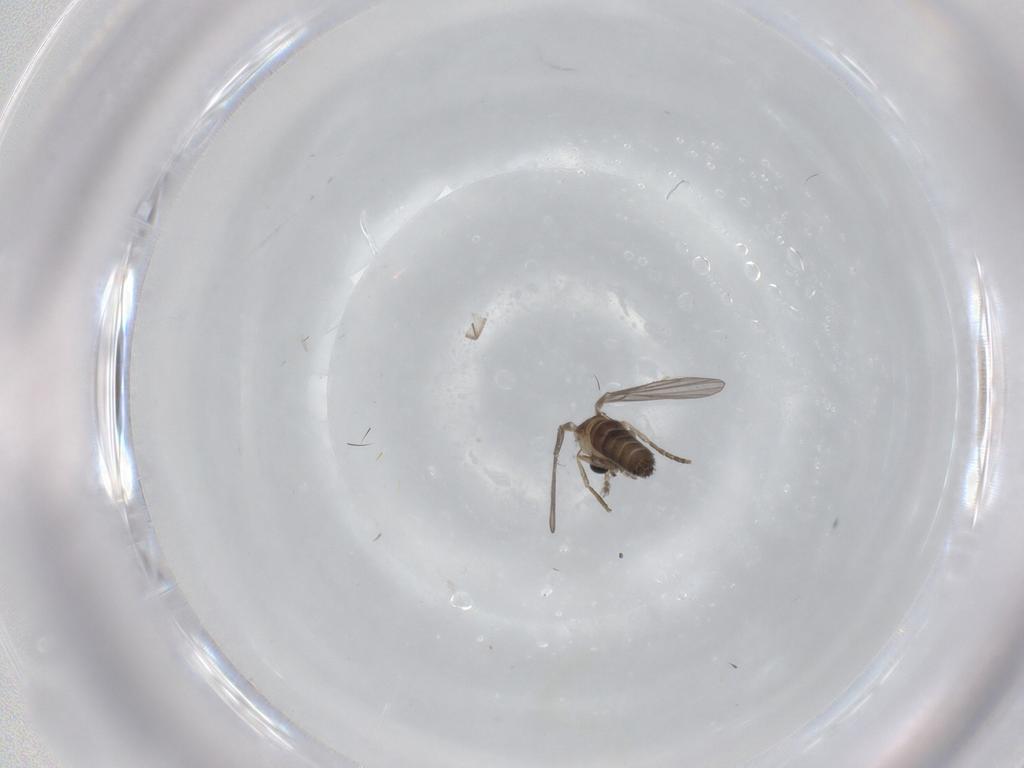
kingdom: Animalia
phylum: Arthropoda
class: Insecta
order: Diptera
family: Psychodidae
